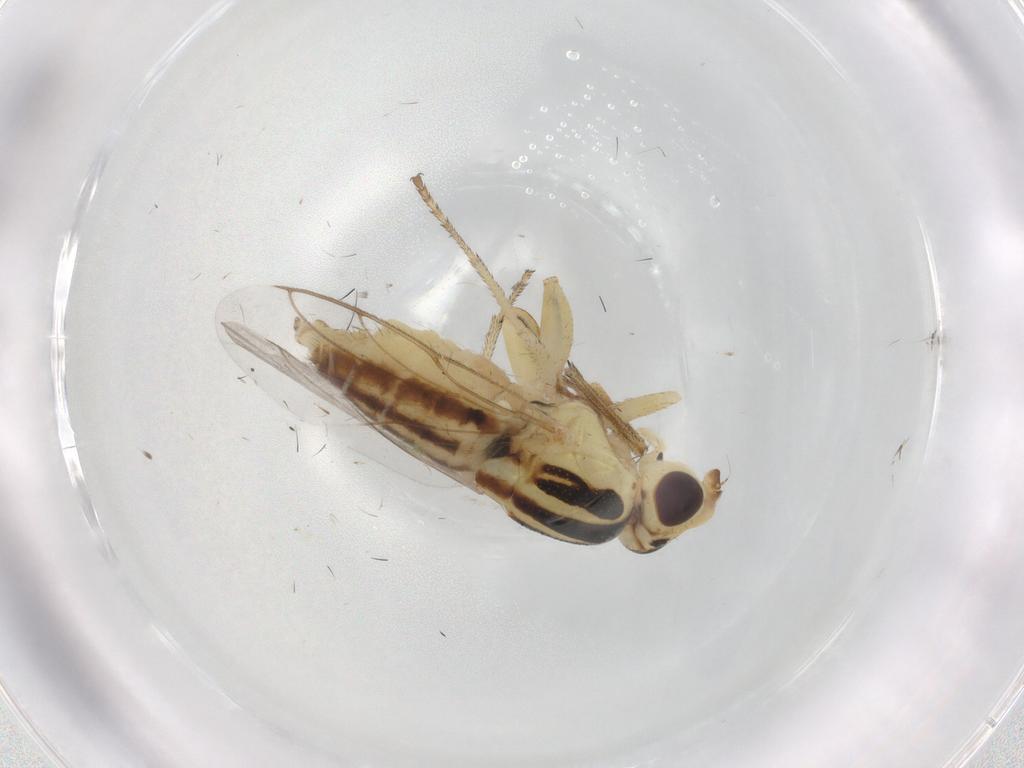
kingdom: Animalia
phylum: Arthropoda
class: Insecta
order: Diptera
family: Chloropidae
